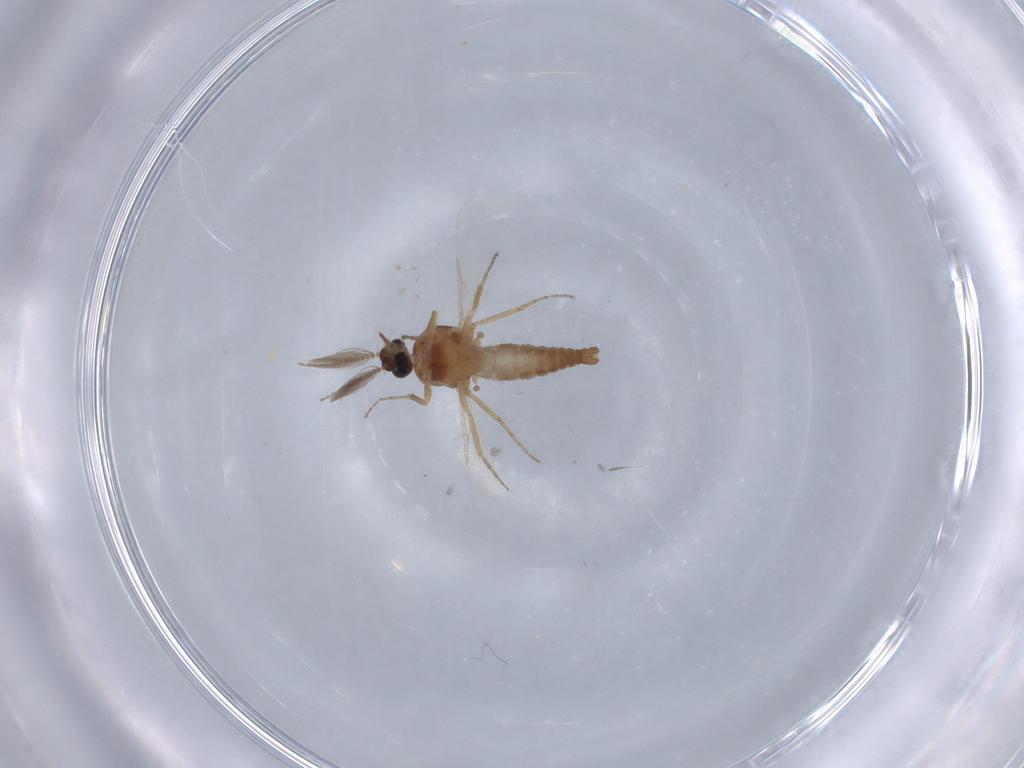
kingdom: Animalia
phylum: Arthropoda
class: Insecta
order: Diptera
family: Ceratopogonidae
